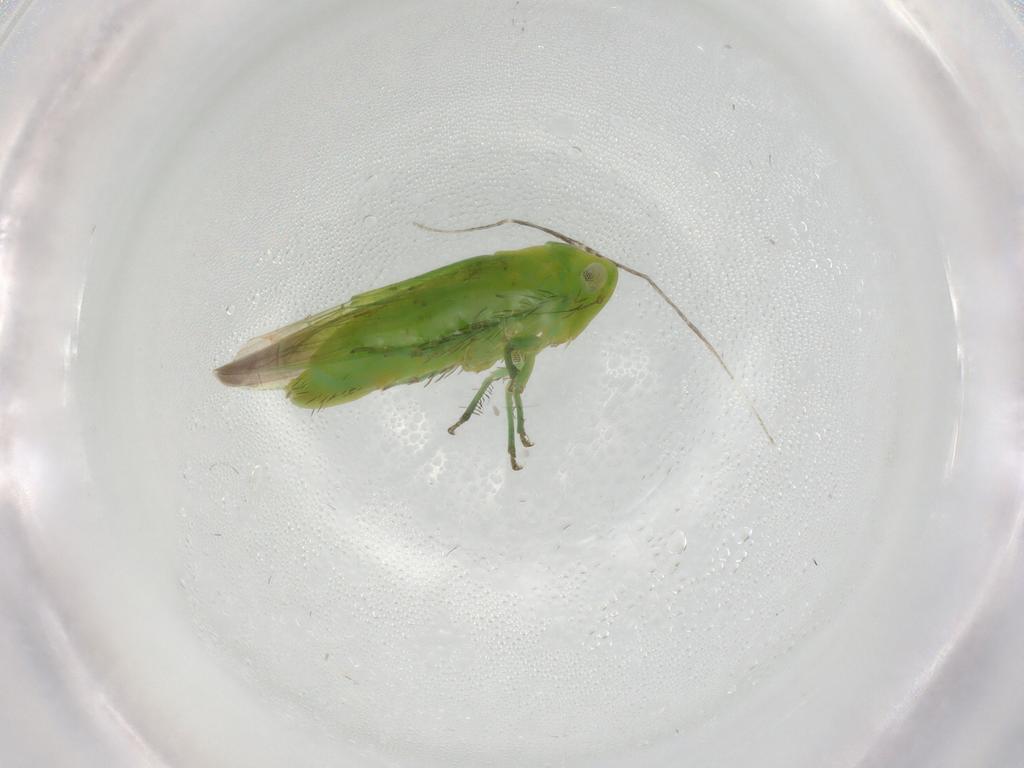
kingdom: Animalia
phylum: Arthropoda
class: Insecta
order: Hemiptera
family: Cicadellidae
